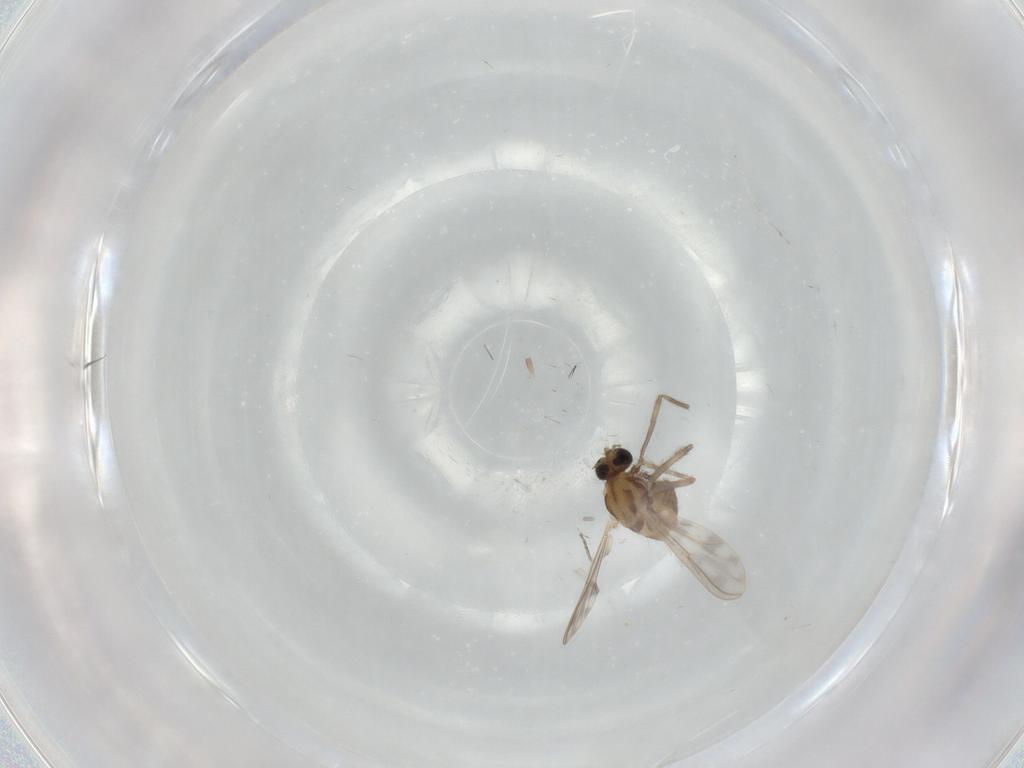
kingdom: Animalia
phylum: Arthropoda
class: Insecta
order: Diptera
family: Chironomidae
